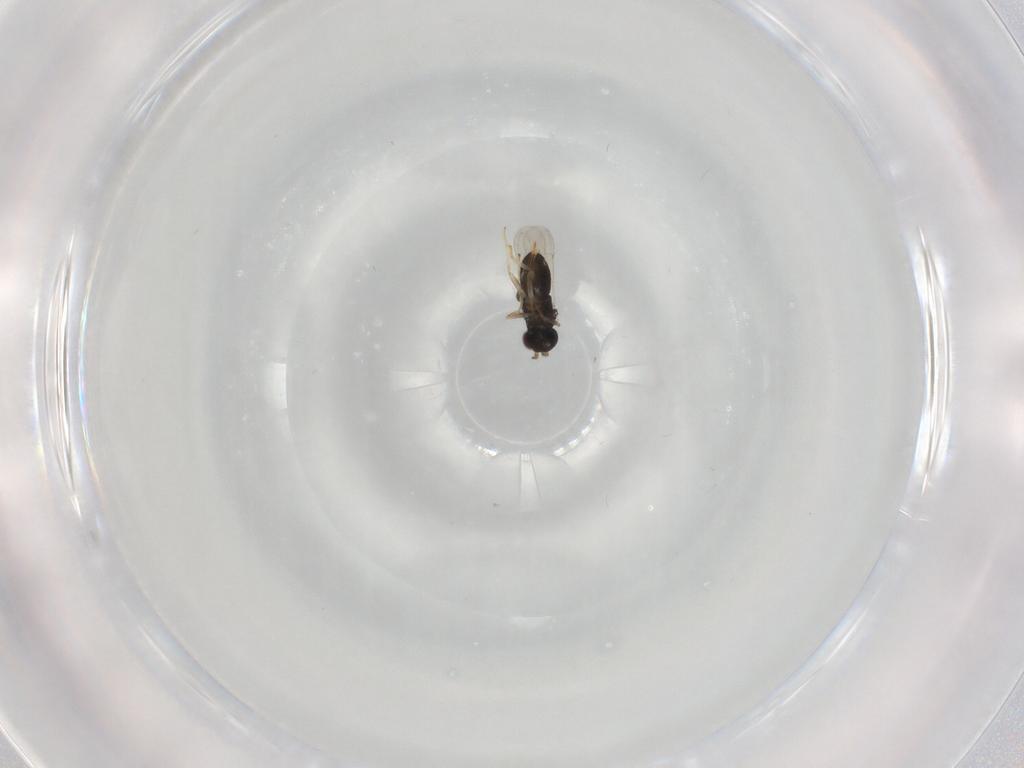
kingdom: Animalia
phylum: Arthropoda
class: Insecta
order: Hymenoptera
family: Aphelinidae
